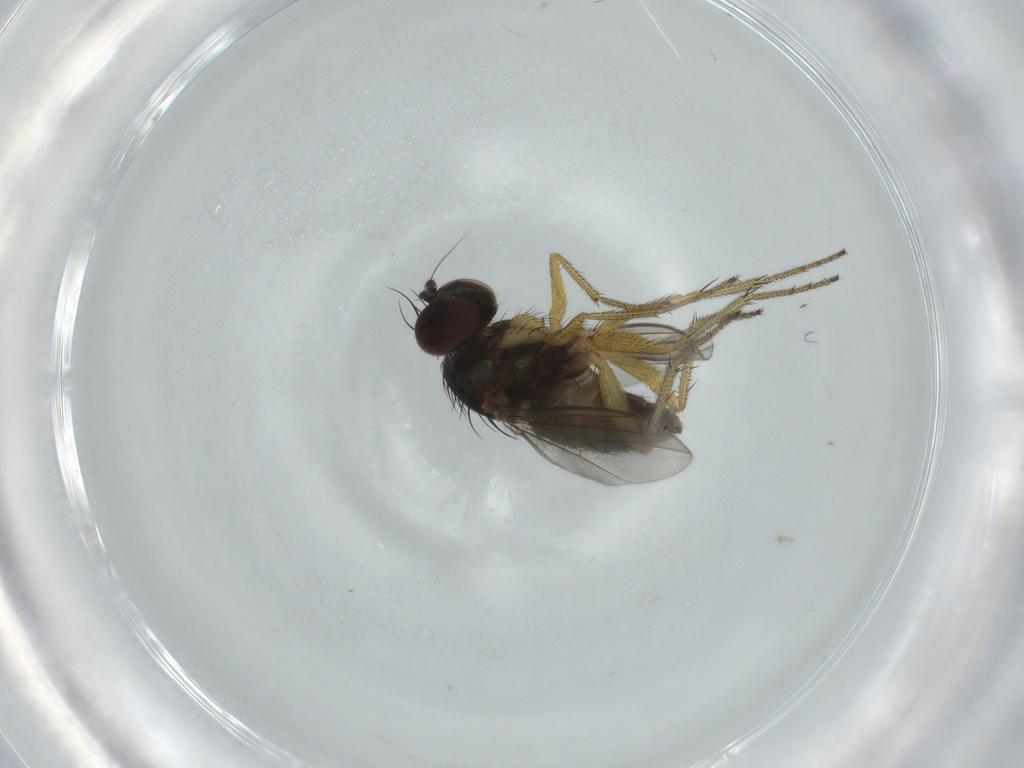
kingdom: Animalia
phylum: Arthropoda
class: Insecta
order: Diptera
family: Dolichopodidae
